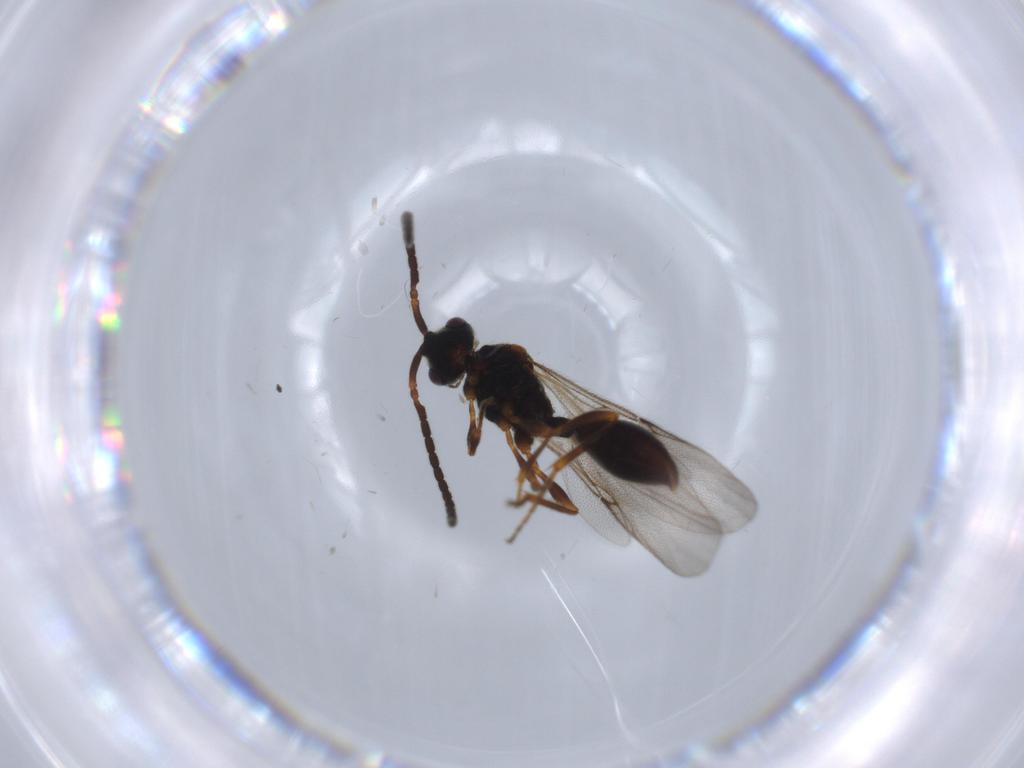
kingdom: Animalia
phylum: Arthropoda
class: Insecta
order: Hymenoptera
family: Diapriidae
